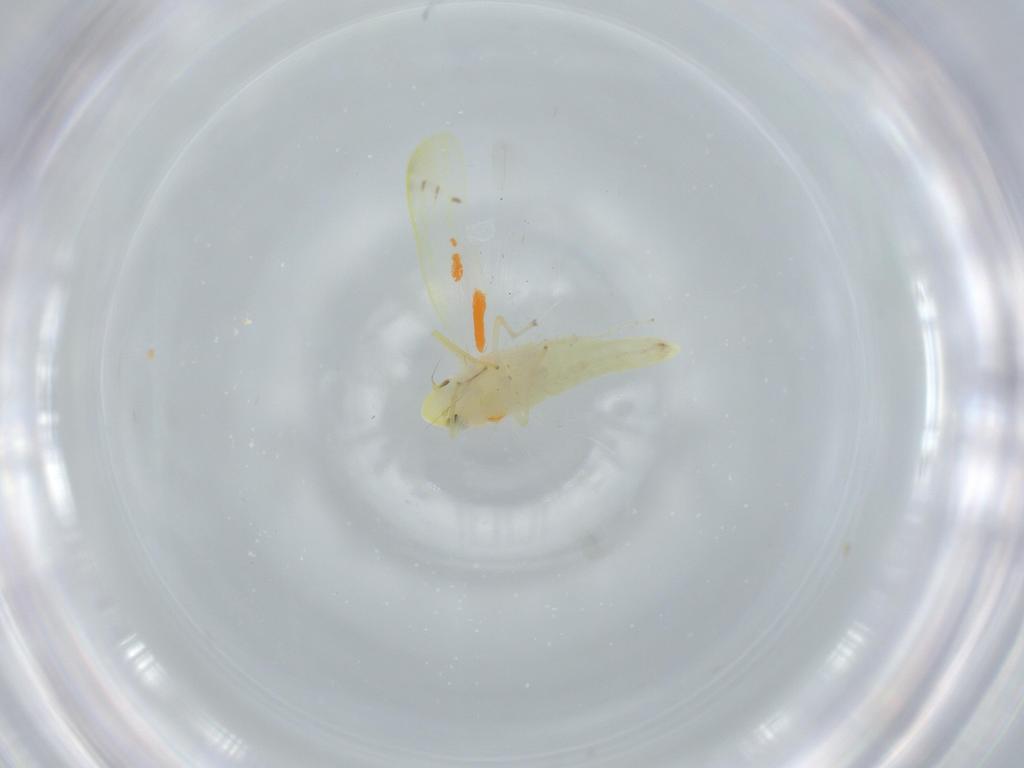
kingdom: Animalia
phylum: Arthropoda
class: Insecta
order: Hemiptera
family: Cicadellidae
